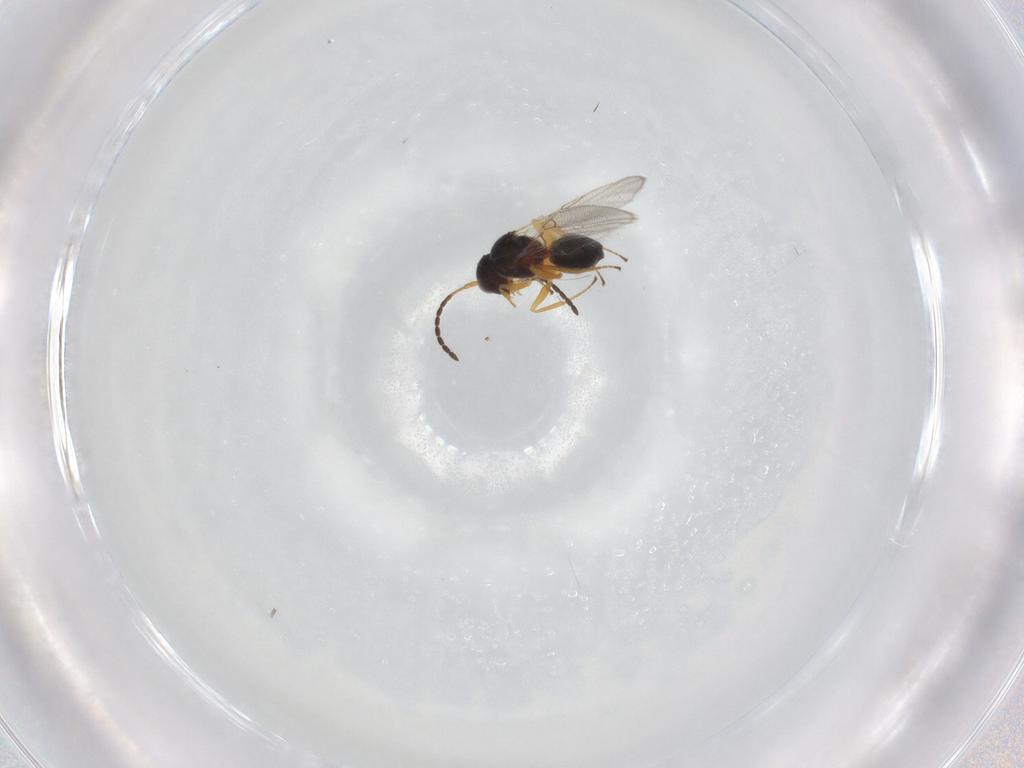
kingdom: Animalia
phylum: Arthropoda
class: Insecta
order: Hymenoptera
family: Figitidae
